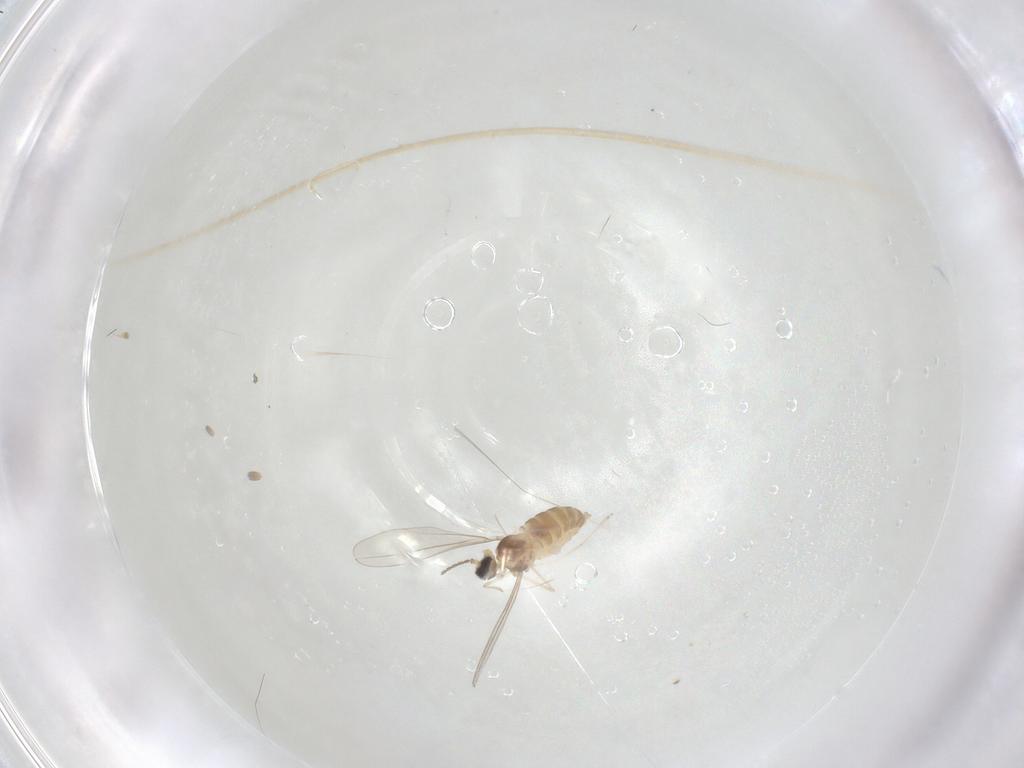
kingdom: Animalia
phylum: Arthropoda
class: Insecta
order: Diptera
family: Cecidomyiidae
